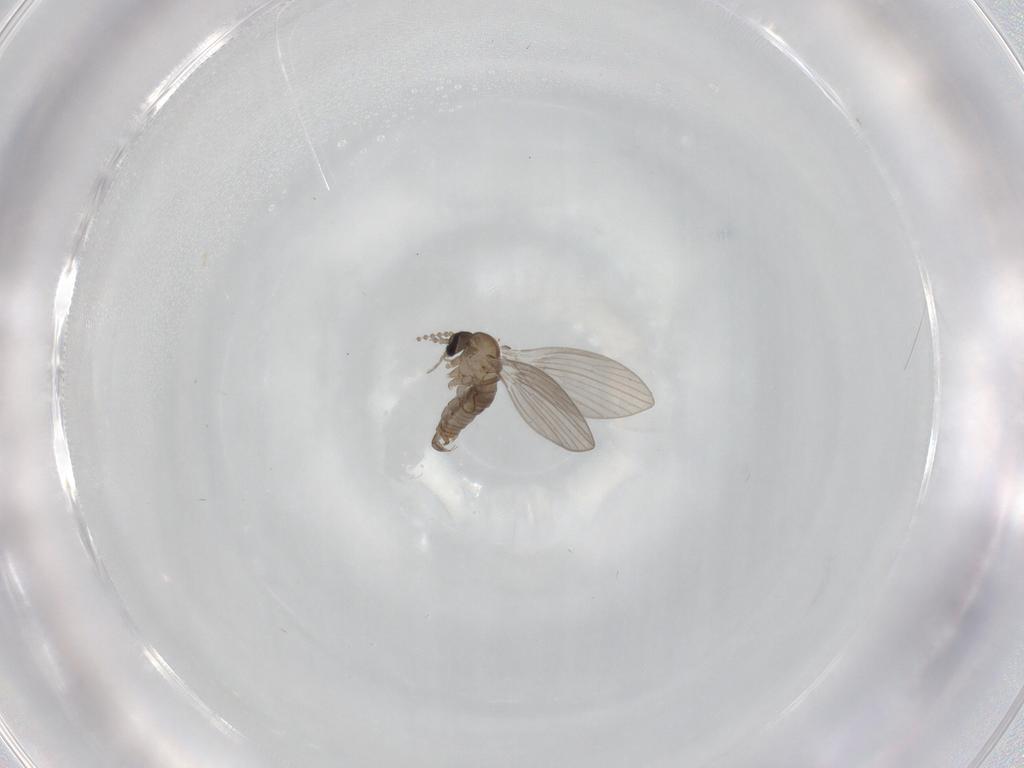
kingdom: Animalia
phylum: Arthropoda
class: Insecta
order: Diptera
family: Ceratopogonidae
